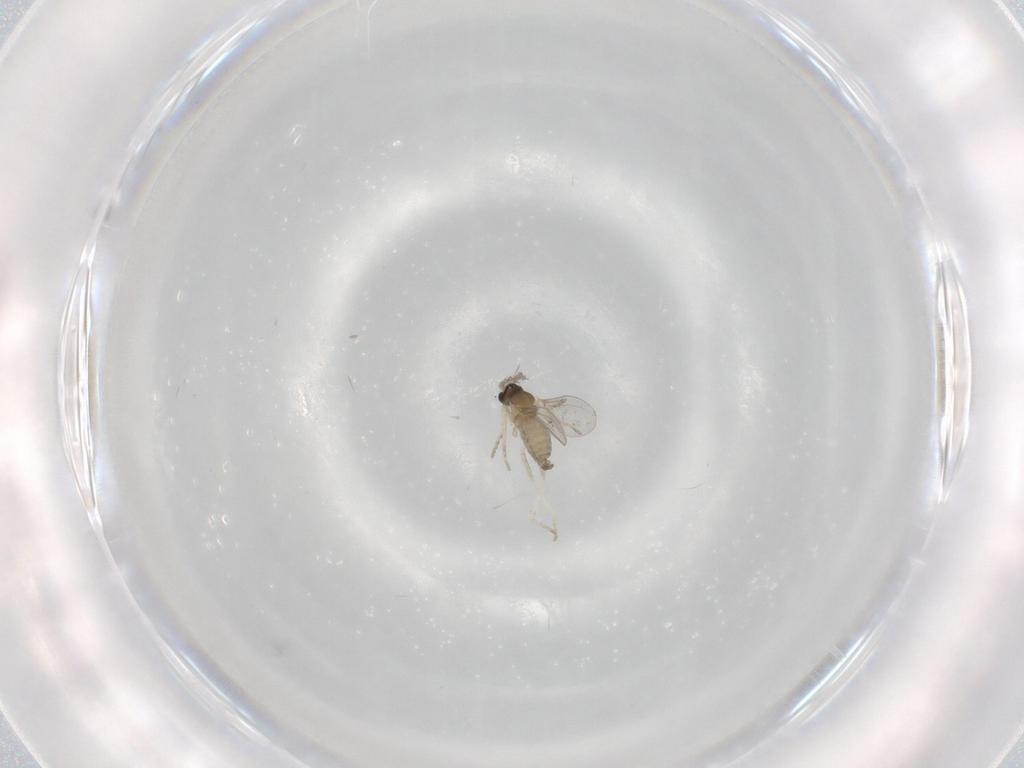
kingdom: Animalia
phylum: Arthropoda
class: Insecta
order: Diptera
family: Cecidomyiidae
